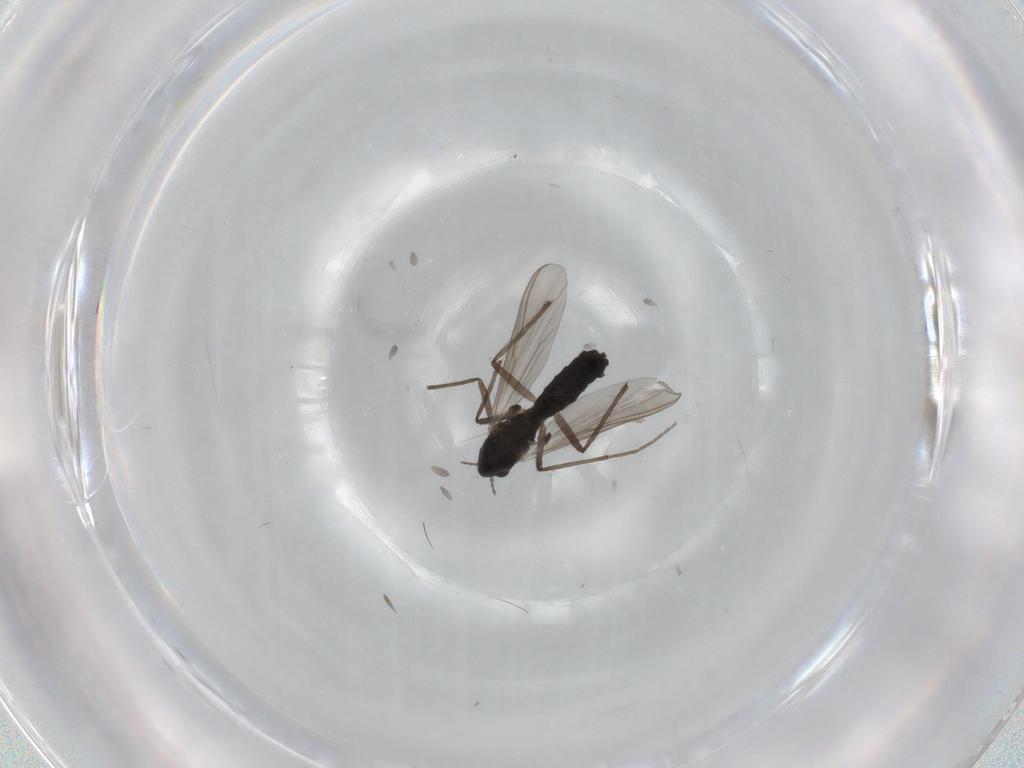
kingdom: Animalia
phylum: Arthropoda
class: Insecta
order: Diptera
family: Chironomidae
